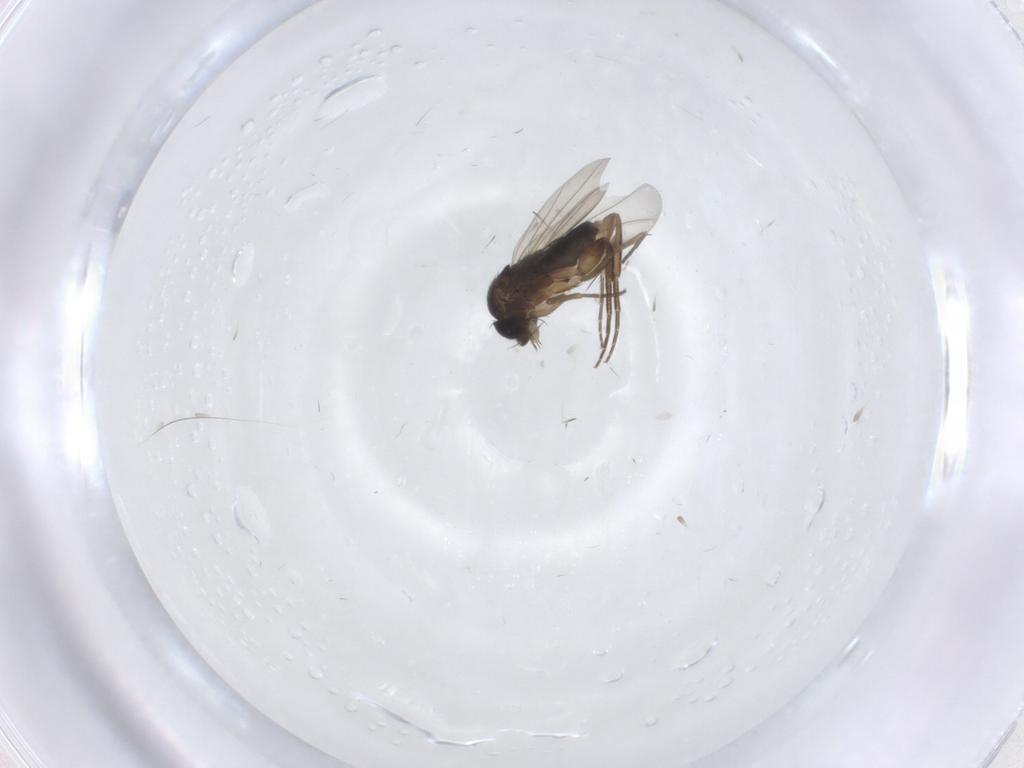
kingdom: Animalia
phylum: Arthropoda
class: Insecta
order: Diptera
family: Phoridae
